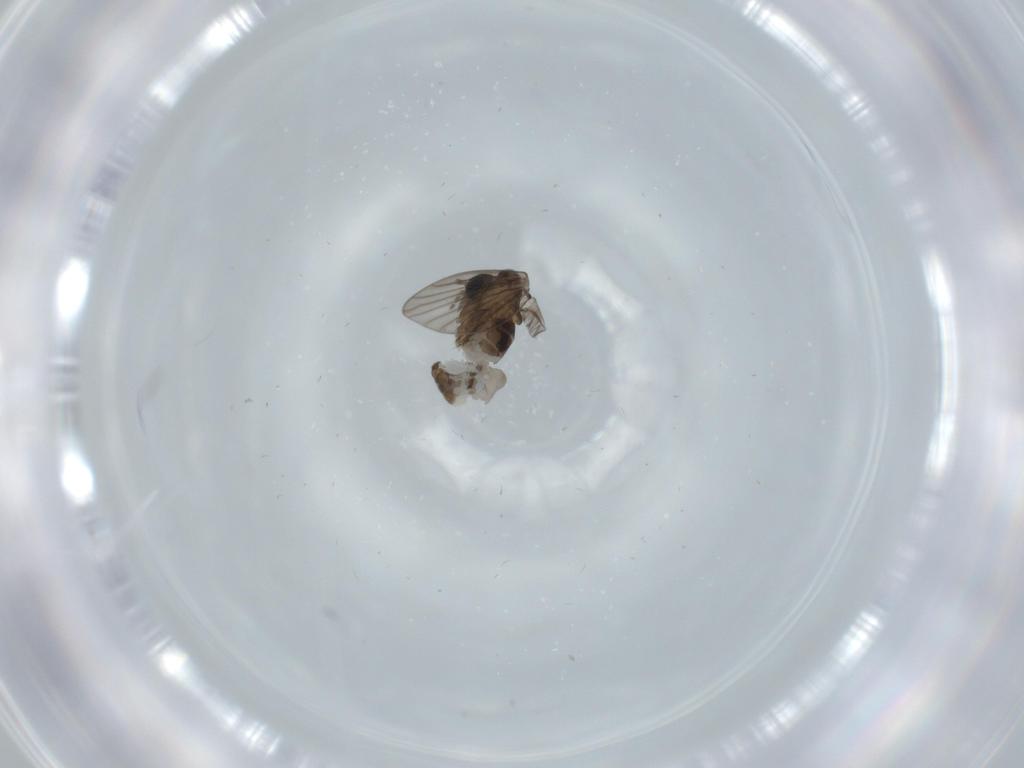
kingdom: Animalia
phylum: Arthropoda
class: Insecta
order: Diptera
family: Psychodidae
